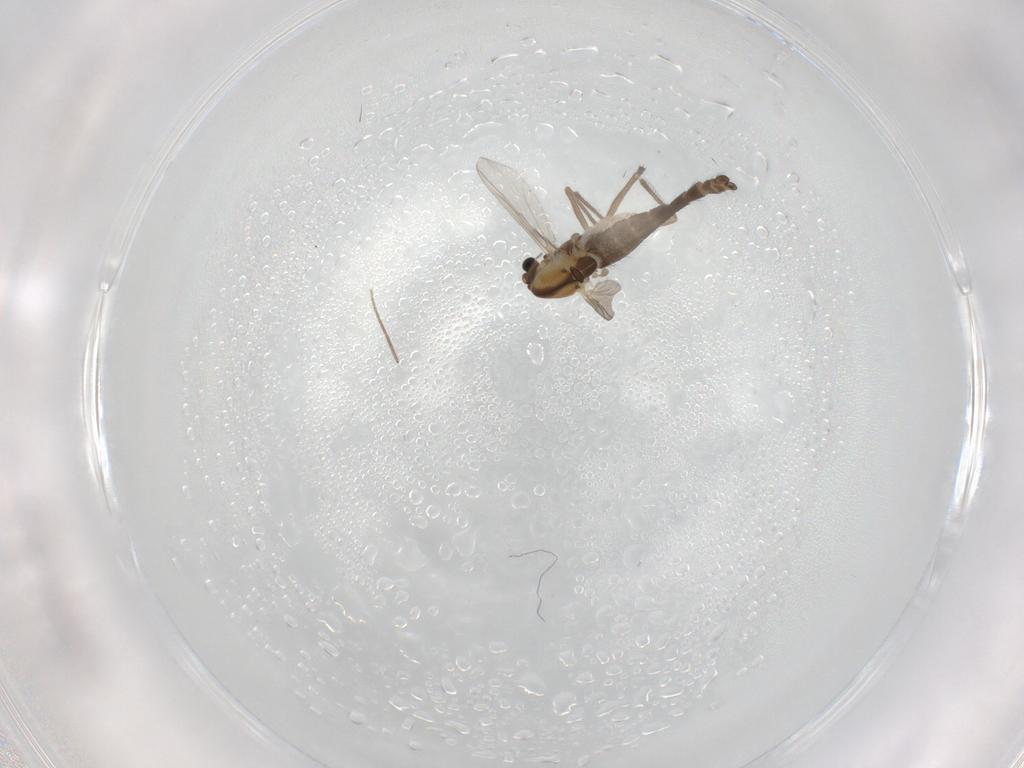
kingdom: Animalia
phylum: Arthropoda
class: Insecta
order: Diptera
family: Chironomidae
